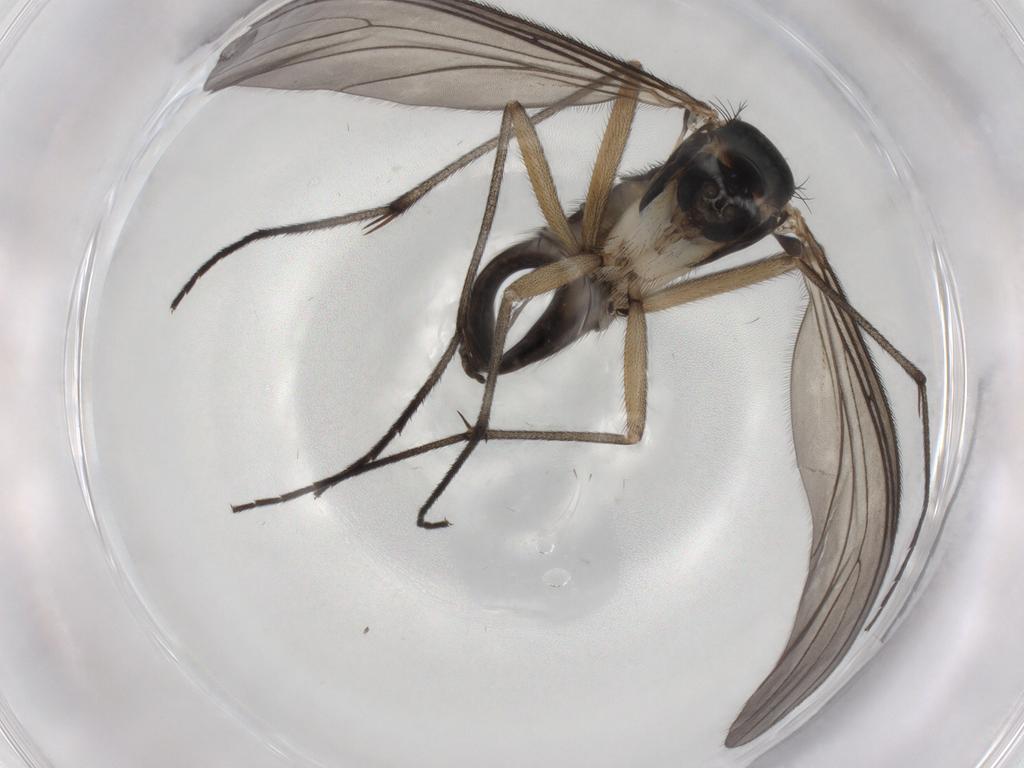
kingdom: Animalia
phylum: Arthropoda
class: Insecta
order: Diptera
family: Sciaridae
